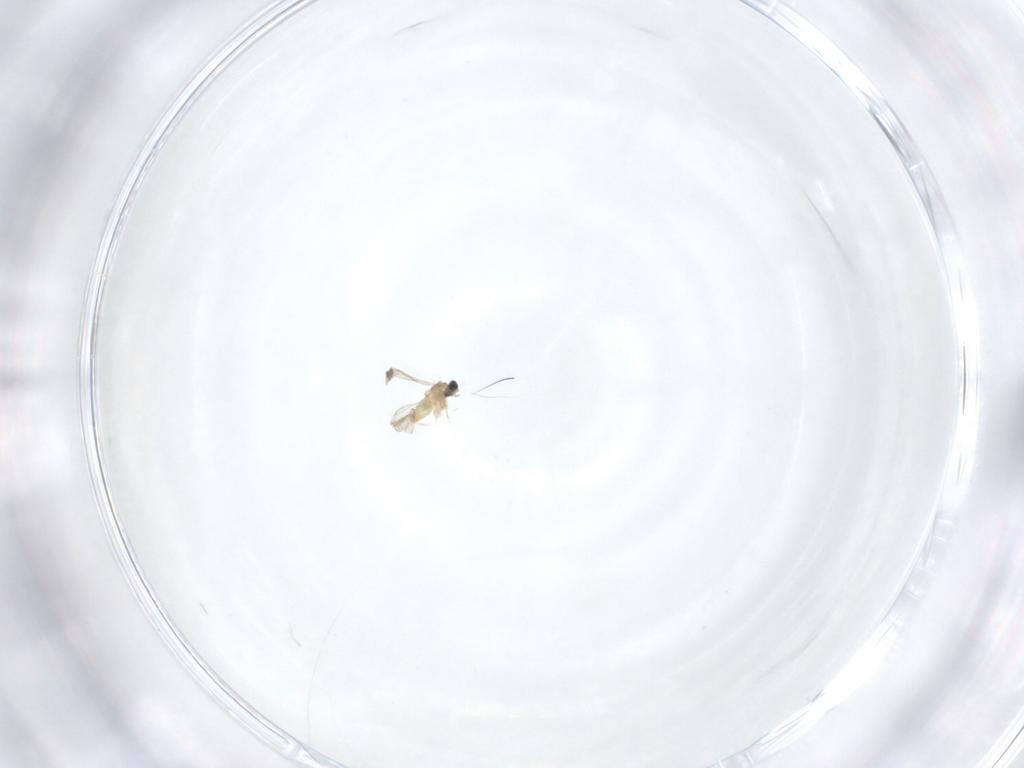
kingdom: Animalia
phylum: Arthropoda
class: Insecta
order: Diptera
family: Cecidomyiidae
